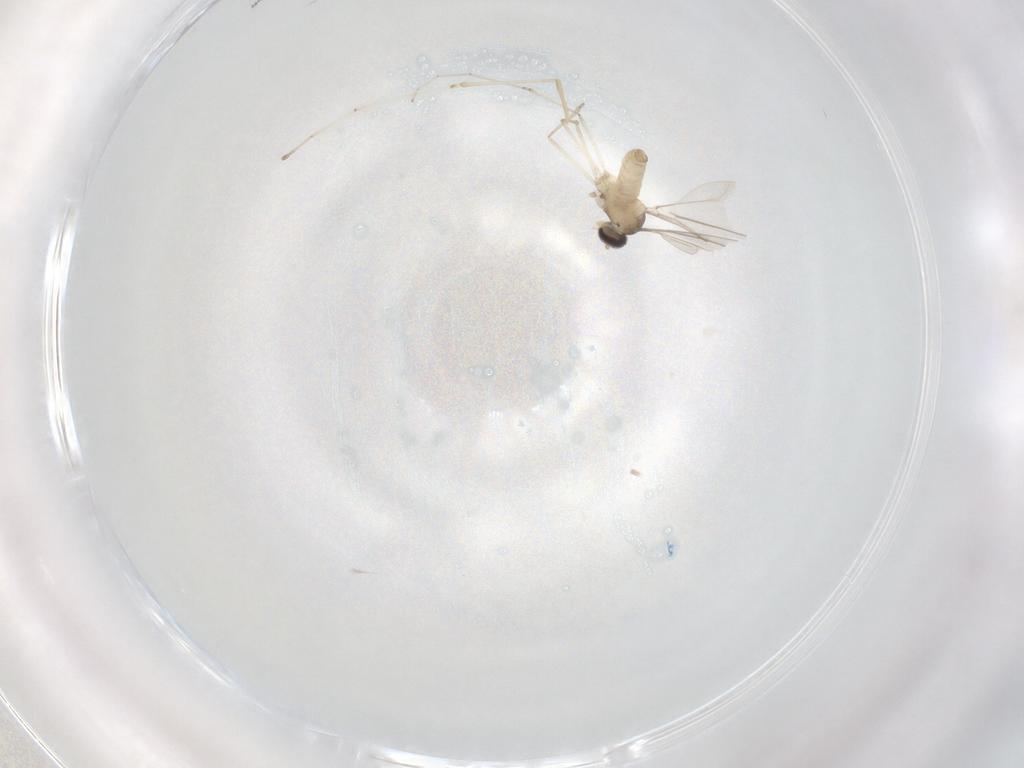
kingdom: Animalia
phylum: Arthropoda
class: Insecta
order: Diptera
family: Cecidomyiidae
